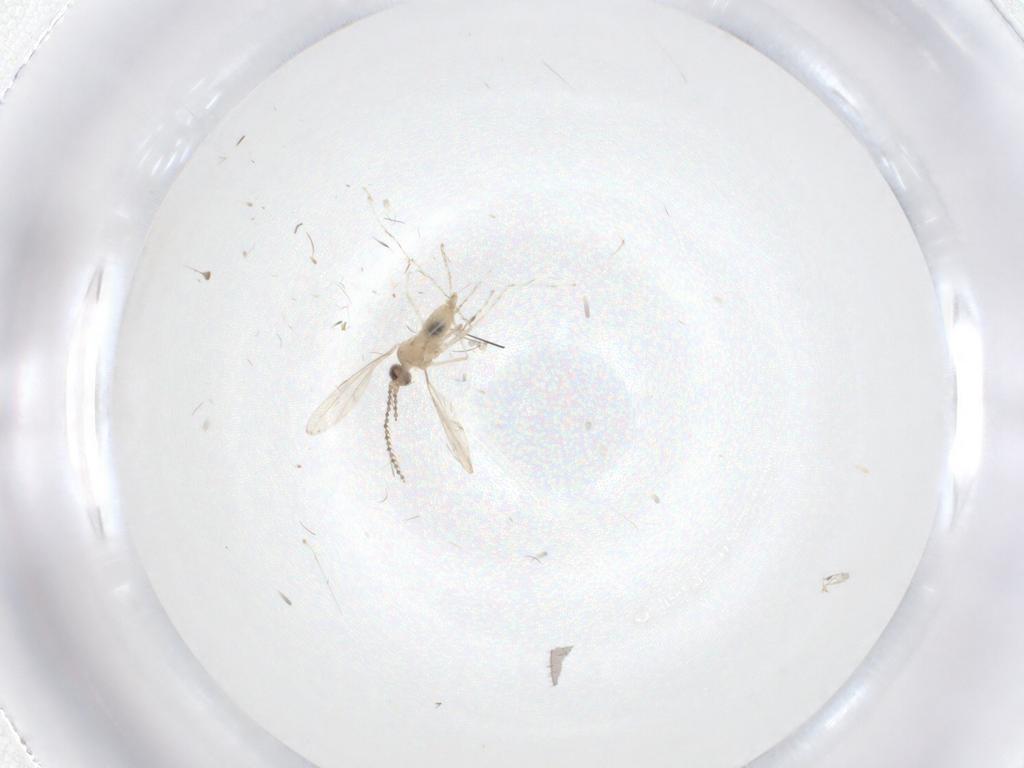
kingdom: Animalia
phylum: Arthropoda
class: Insecta
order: Diptera
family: Cecidomyiidae
